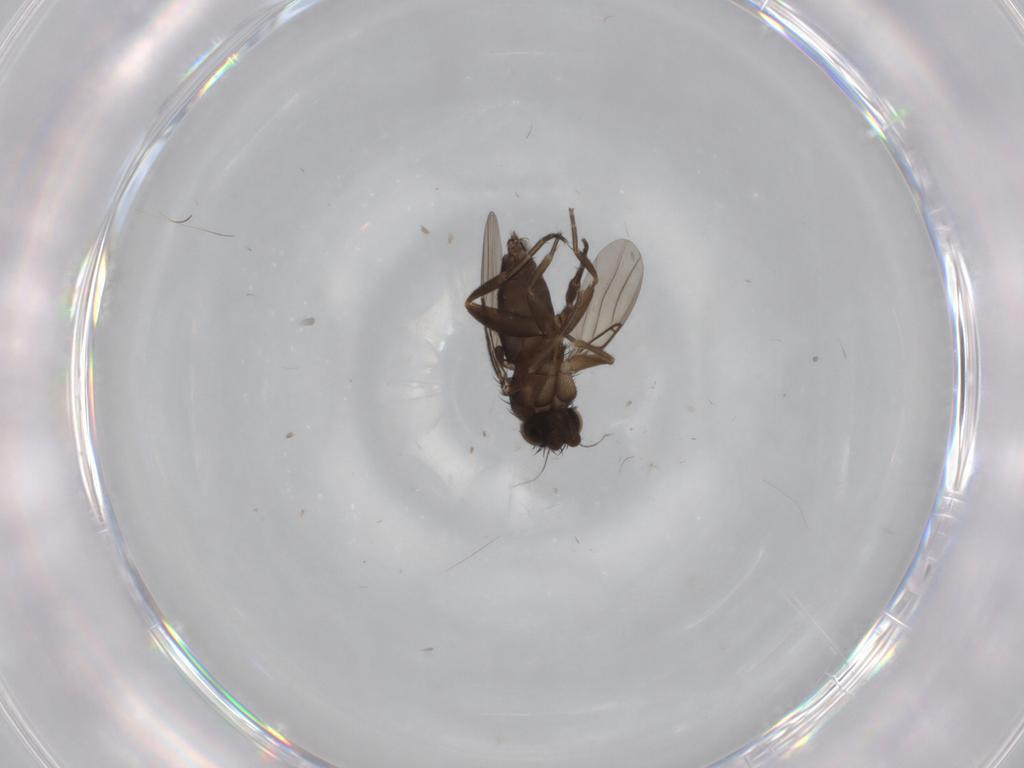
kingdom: Animalia
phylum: Arthropoda
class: Insecta
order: Diptera
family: Phoridae
